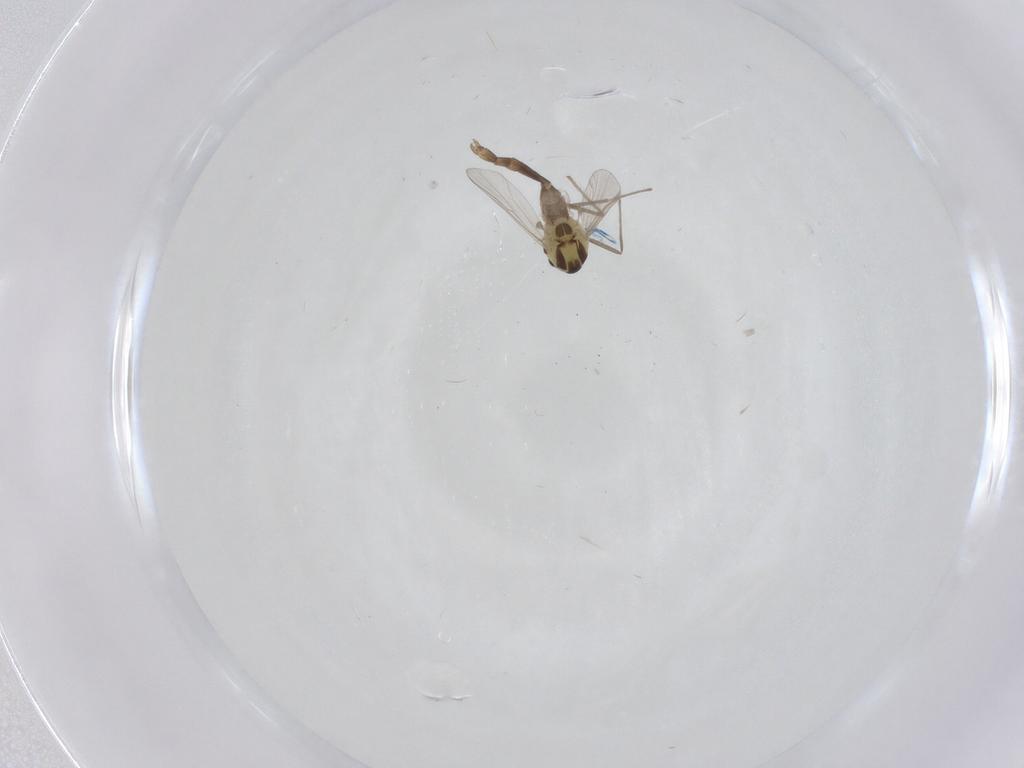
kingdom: Animalia
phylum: Arthropoda
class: Insecta
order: Diptera
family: Chironomidae
